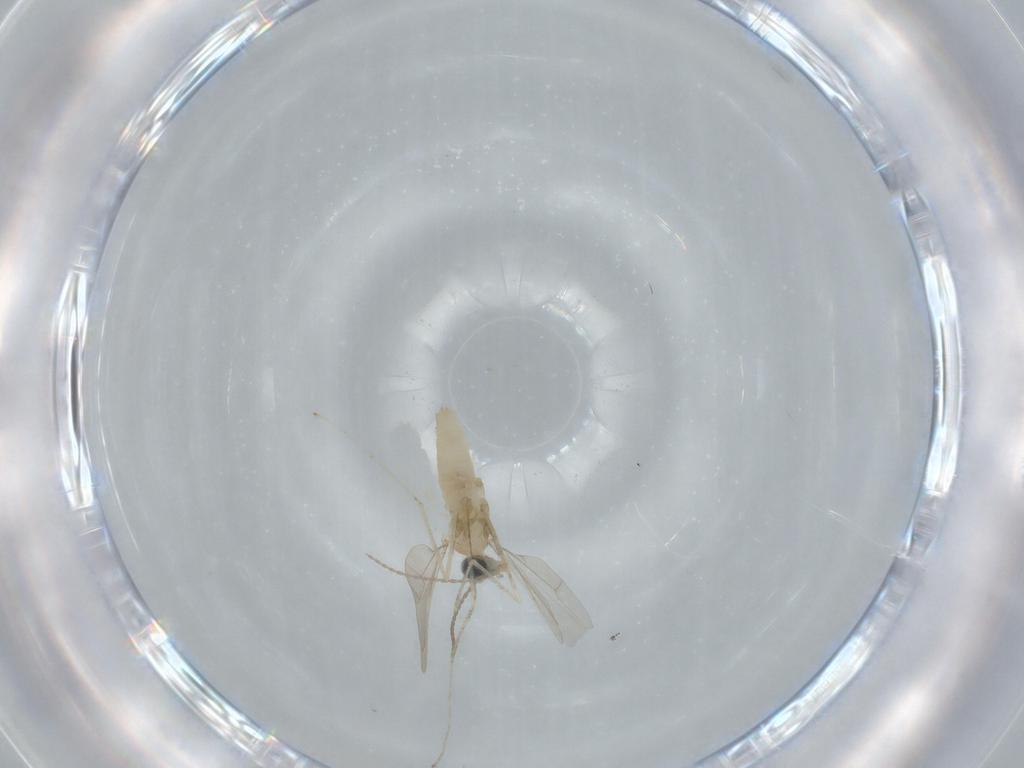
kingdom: Animalia
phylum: Arthropoda
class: Insecta
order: Diptera
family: Cecidomyiidae
